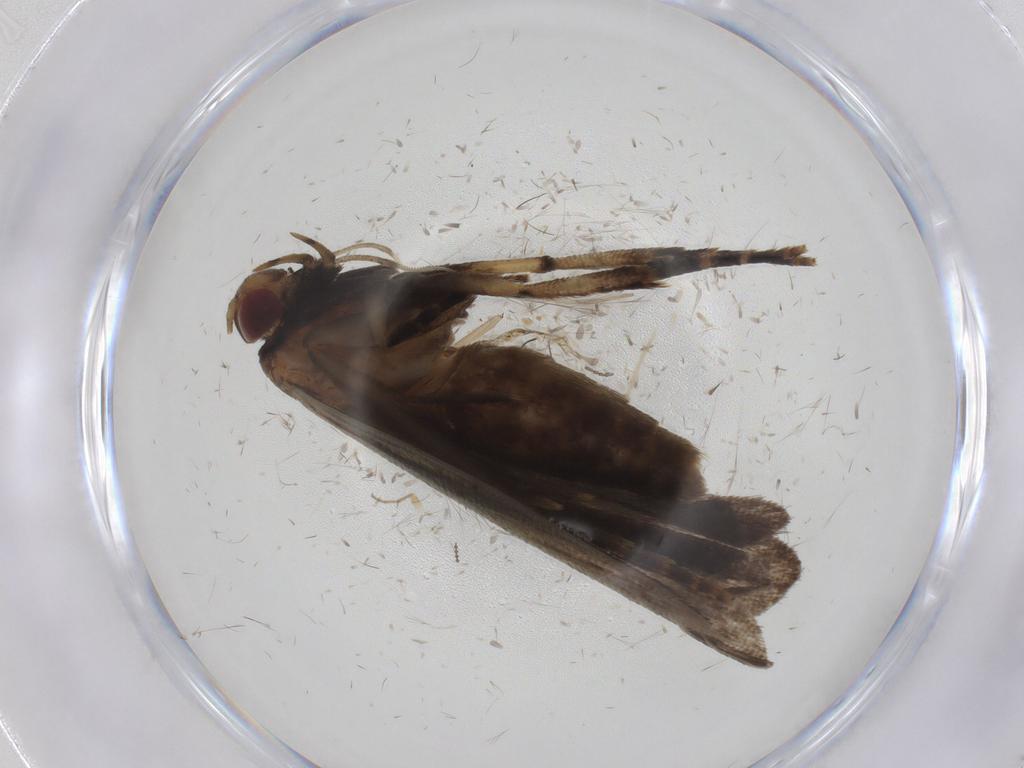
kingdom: Animalia
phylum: Arthropoda
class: Insecta
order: Lepidoptera
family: Gelechiidae
